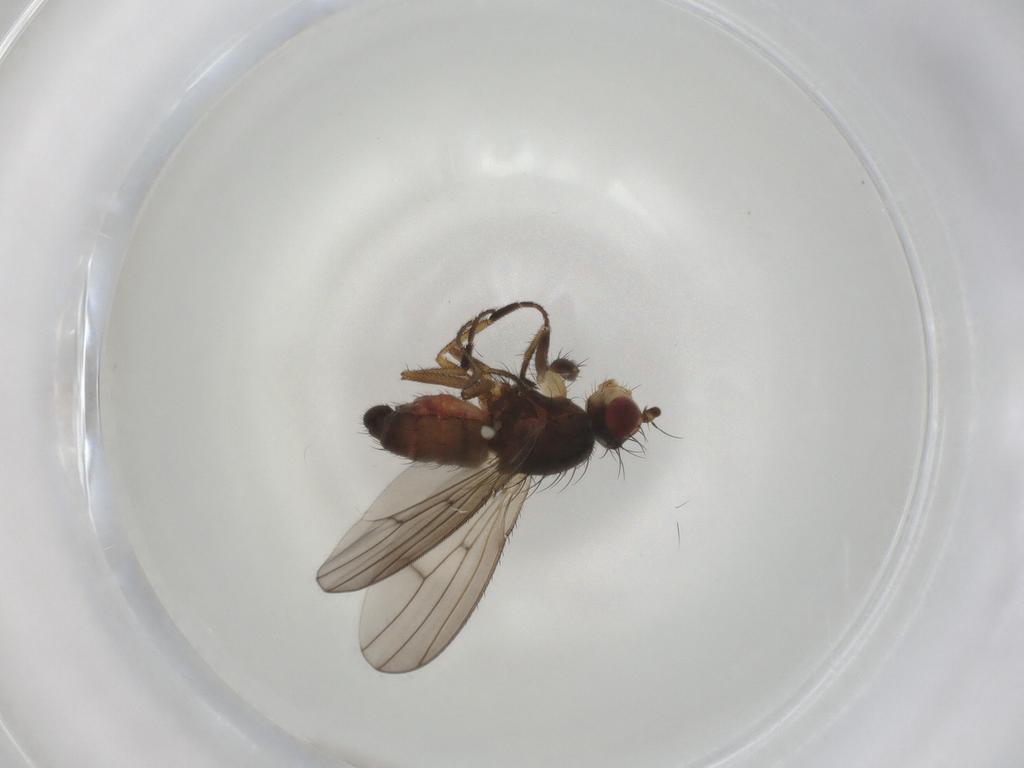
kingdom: Animalia
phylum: Arthropoda
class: Insecta
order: Diptera
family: Heleomyzidae
